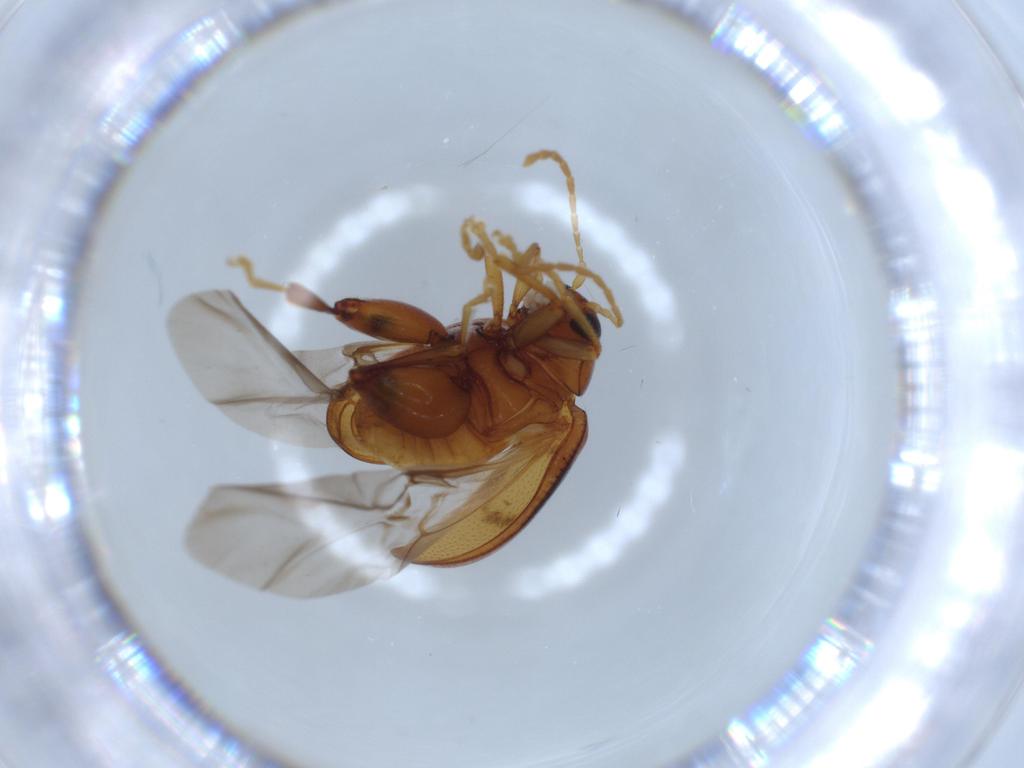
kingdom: Animalia
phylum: Arthropoda
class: Insecta
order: Coleoptera
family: Chrysomelidae
